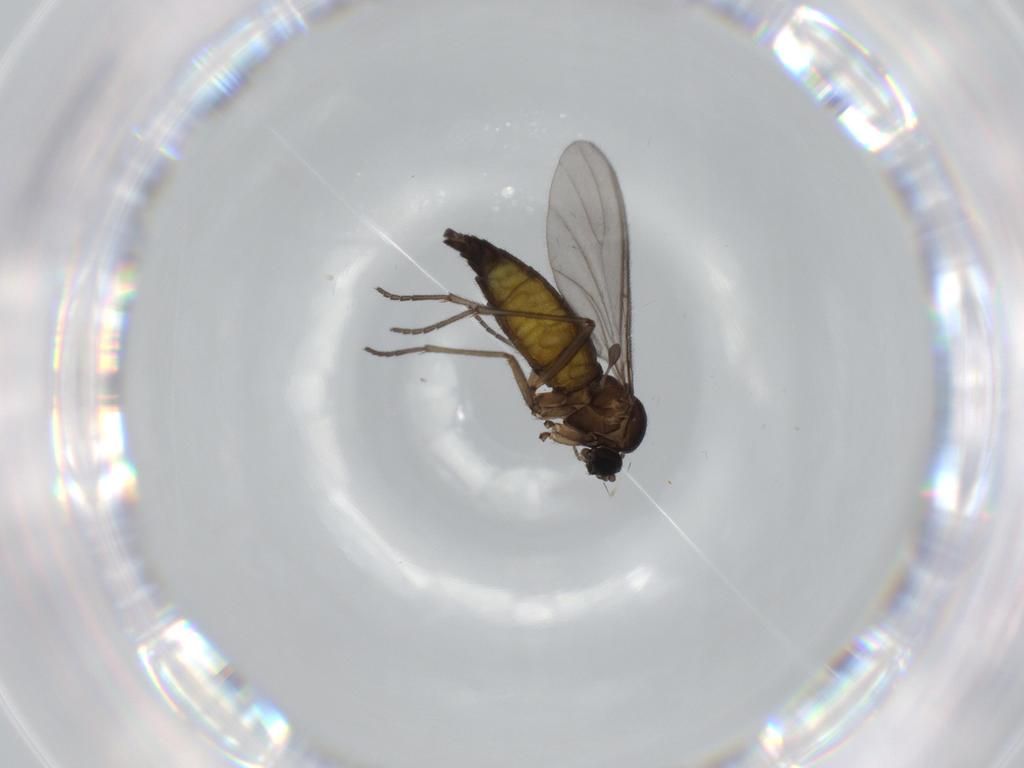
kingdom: Animalia
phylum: Arthropoda
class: Insecta
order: Diptera
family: Sciaridae
